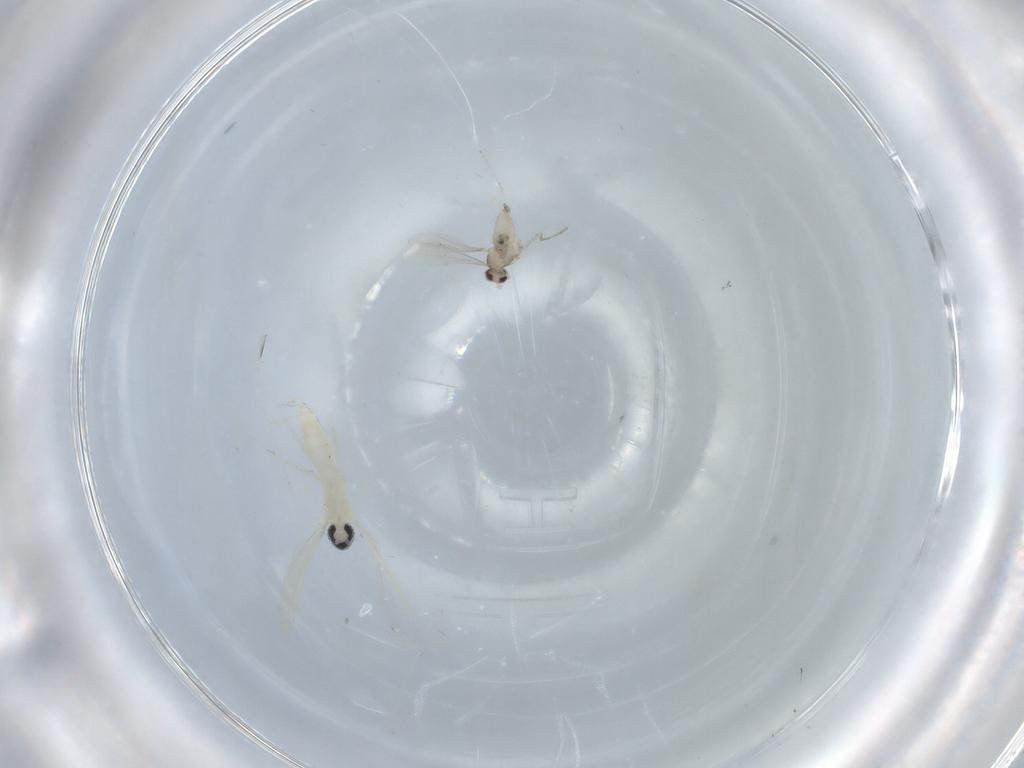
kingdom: Animalia
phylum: Arthropoda
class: Insecta
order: Diptera
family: Cecidomyiidae
